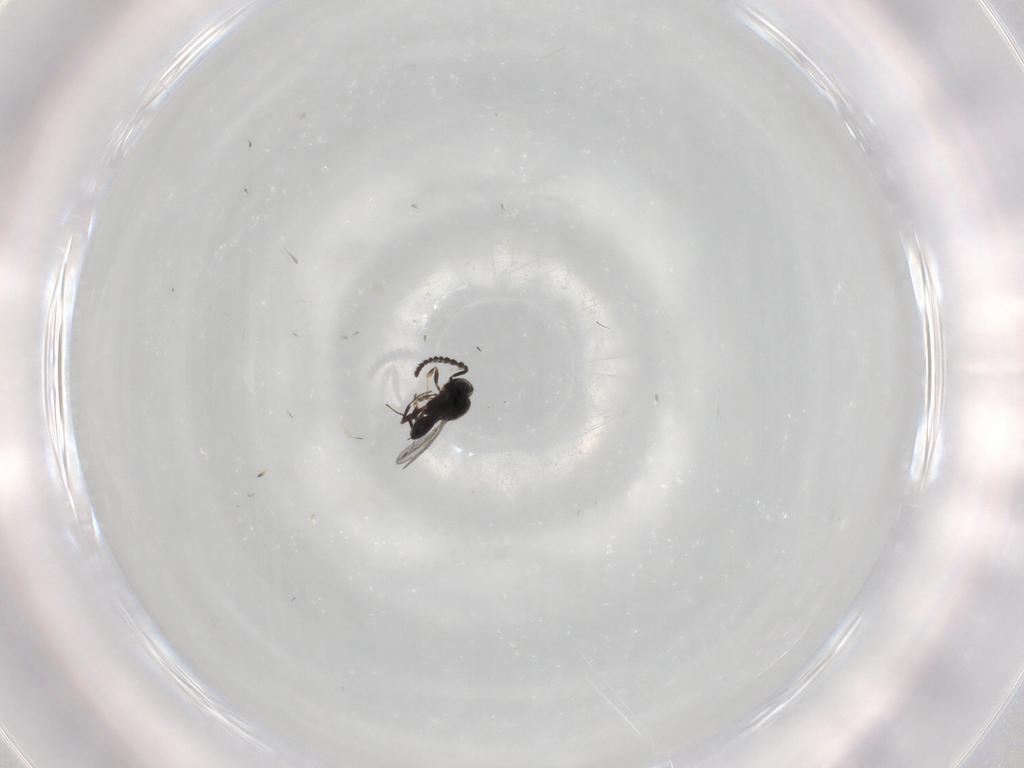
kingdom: Animalia
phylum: Arthropoda
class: Insecta
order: Hymenoptera
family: Scelionidae
